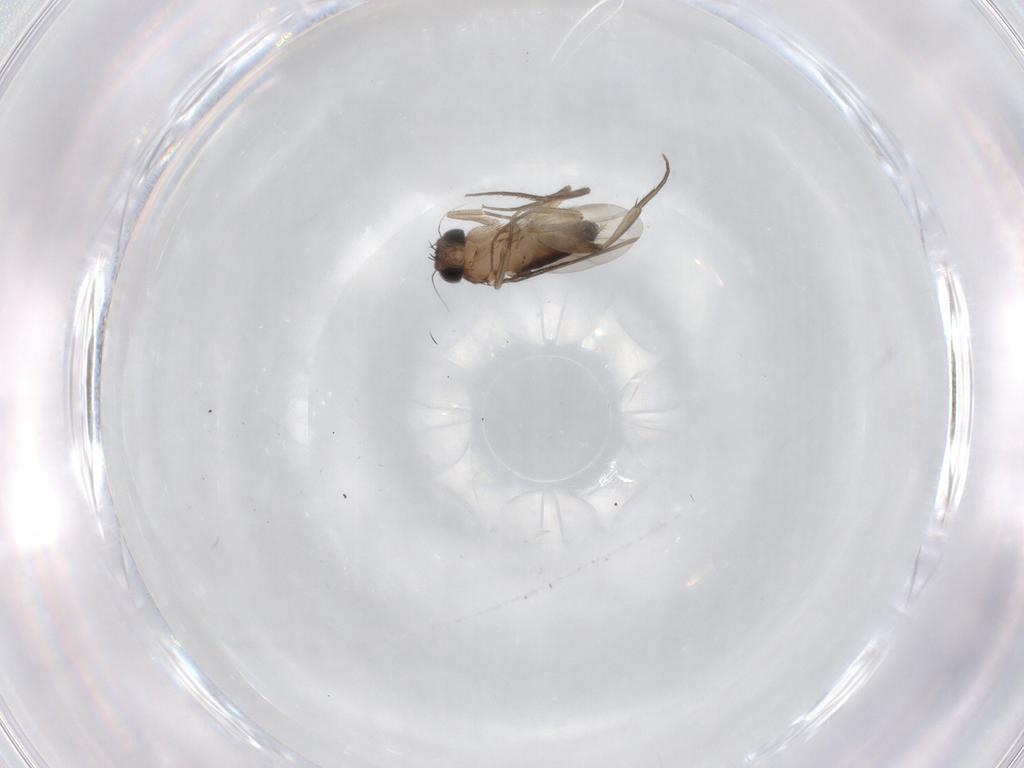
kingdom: Animalia
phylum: Arthropoda
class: Insecta
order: Diptera
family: Phoridae
